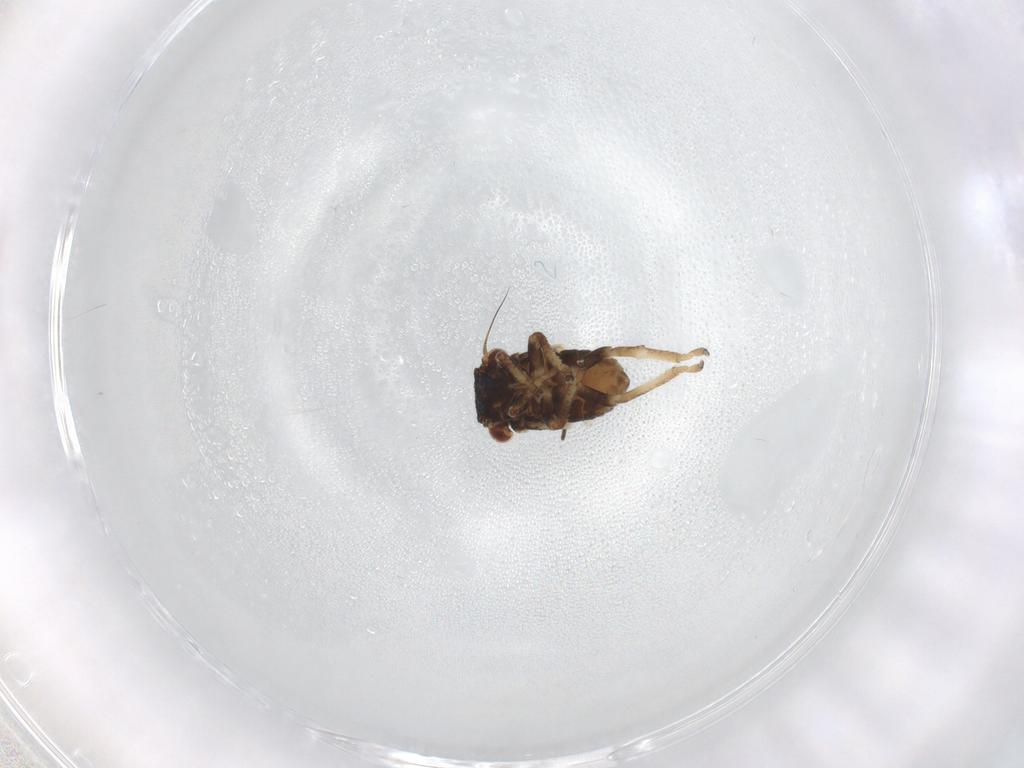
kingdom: Animalia
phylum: Arthropoda
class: Insecta
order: Hemiptera
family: Cicadellidae
